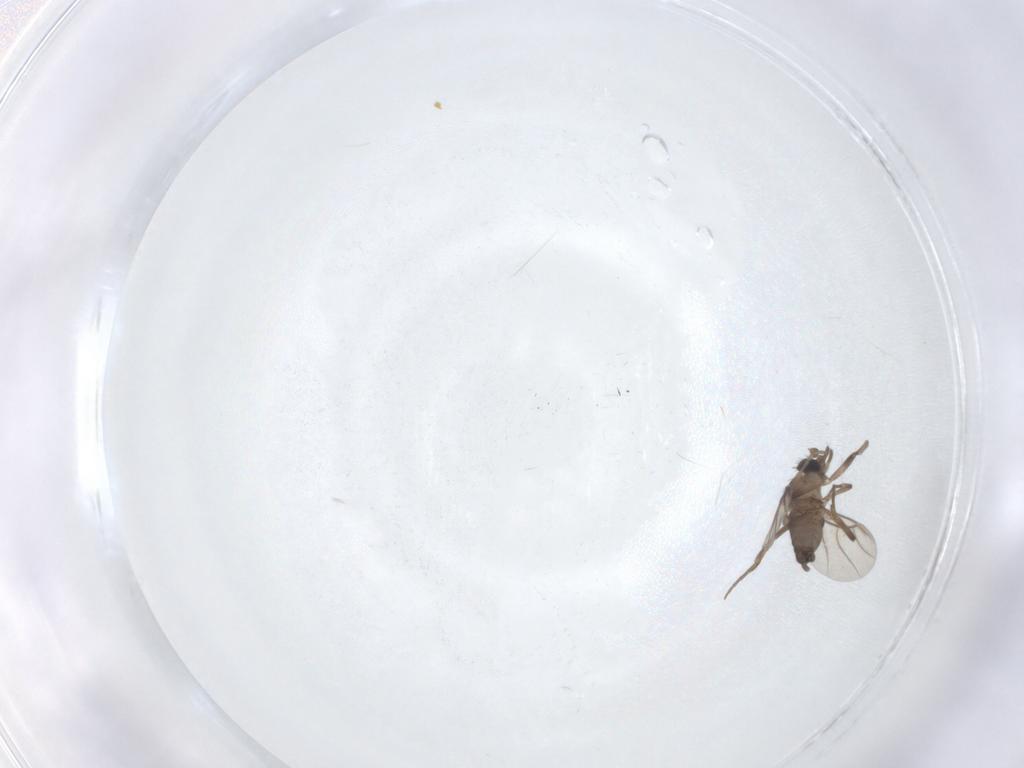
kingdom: Animalia
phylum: Arthropoda
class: Insecta
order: Diptera
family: Phoridae
